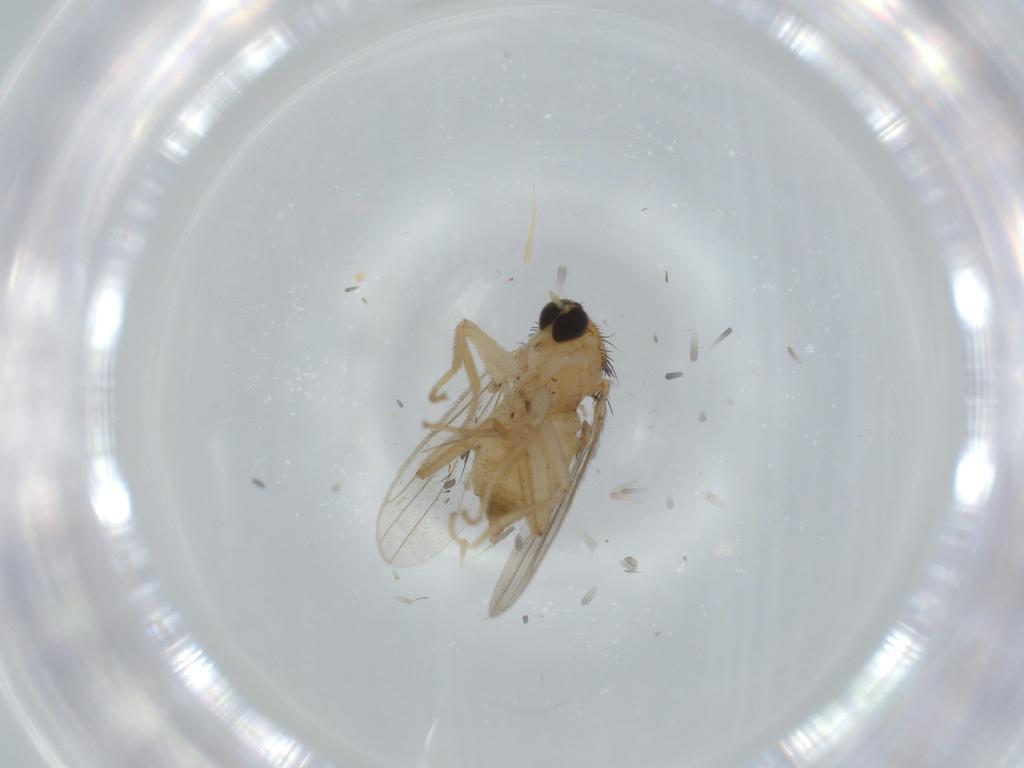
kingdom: Animalia
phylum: Arthropoda
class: Insecta
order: Diptera
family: Hybotidae
